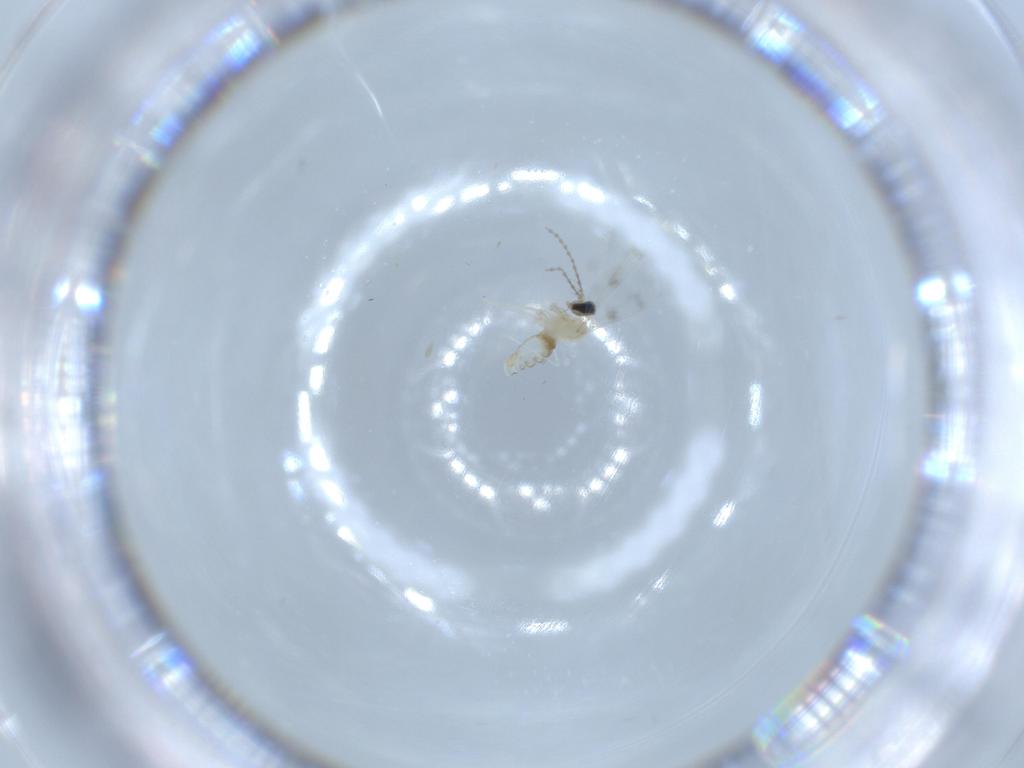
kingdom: Animalia
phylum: Arthropoda
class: Insecta
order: Diptera
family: Cecidomyiidae
